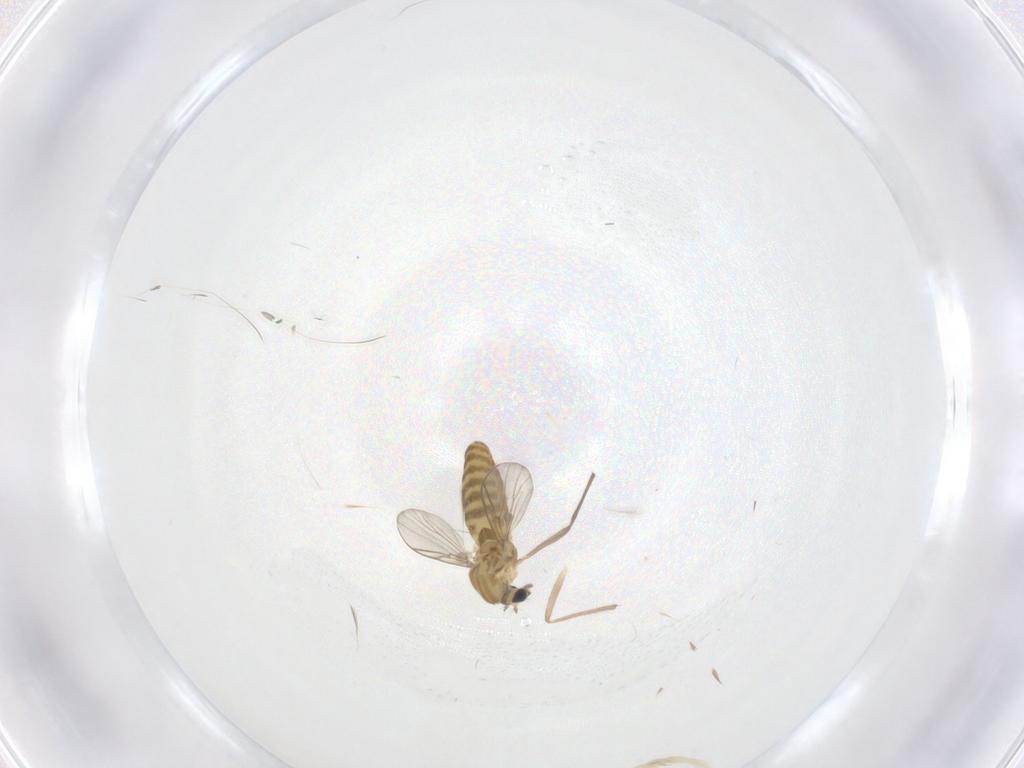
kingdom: Animalia
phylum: Arthropoda
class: Insecta
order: Diptera
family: Chironomidae
